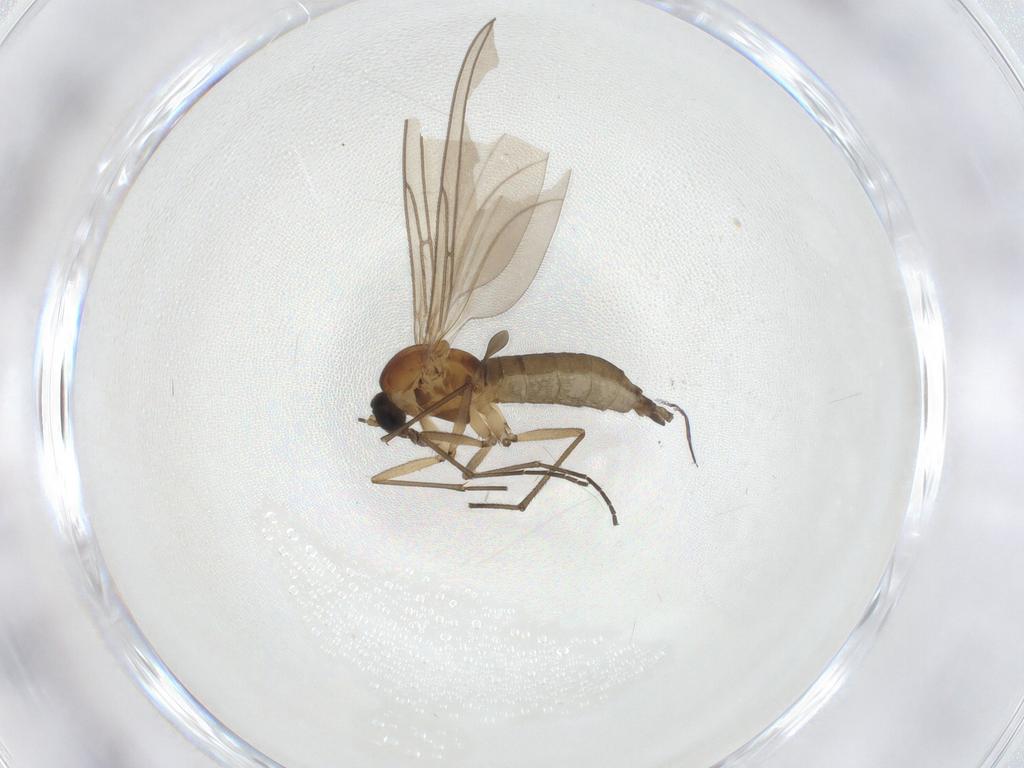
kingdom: Animalia
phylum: Arthropoda
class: Insecta
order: Diptera
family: Sciaridae
